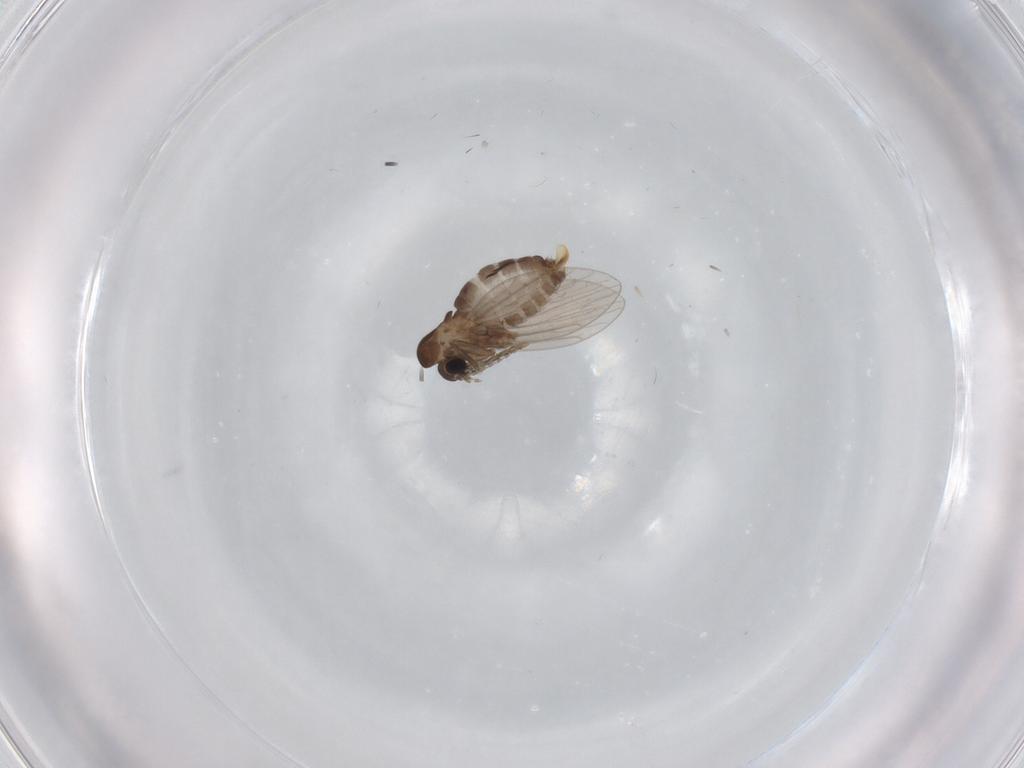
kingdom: Animalia
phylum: Arthropoda
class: Insecta
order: Diptera
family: Psychodidae
